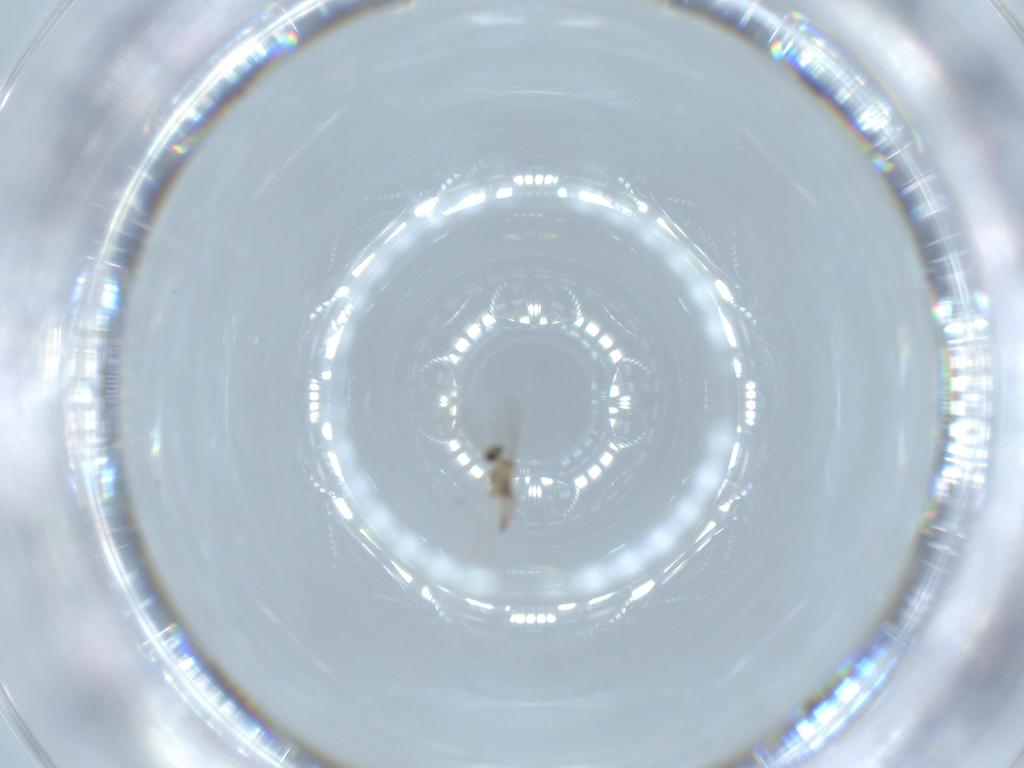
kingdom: Animalia
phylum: Arthropoda
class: Insecta
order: Diptera
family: Cecidomyiidae
